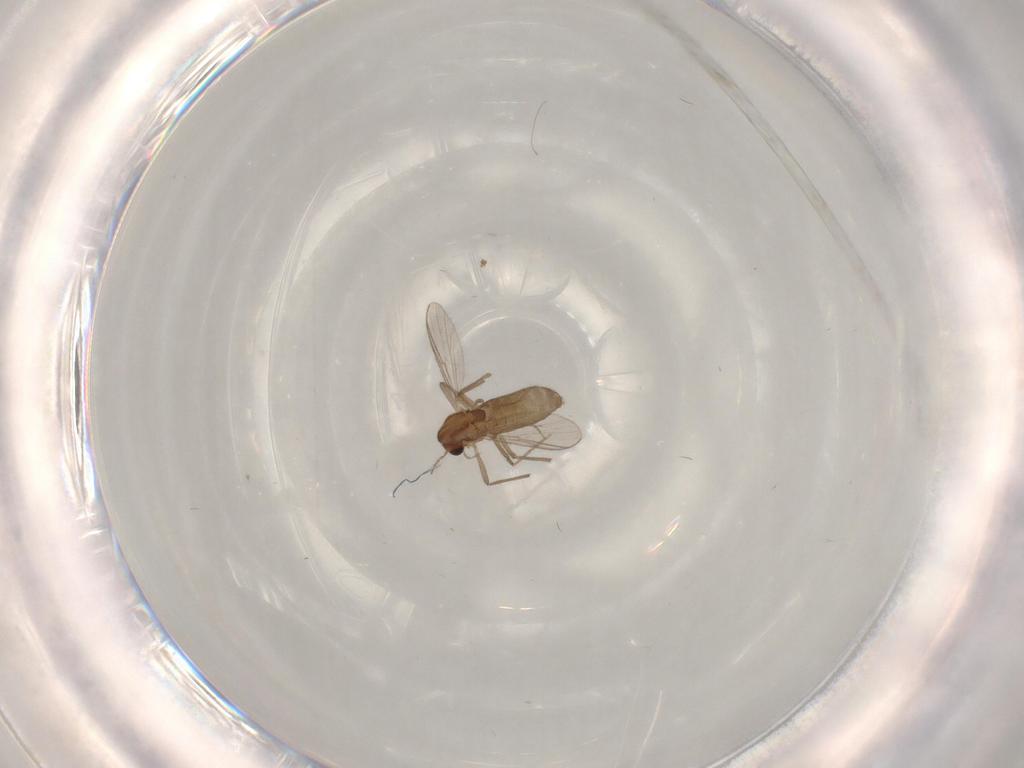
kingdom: Animalia
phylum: Arthropoda
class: Insecta
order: Diptera
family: Chironomidae
